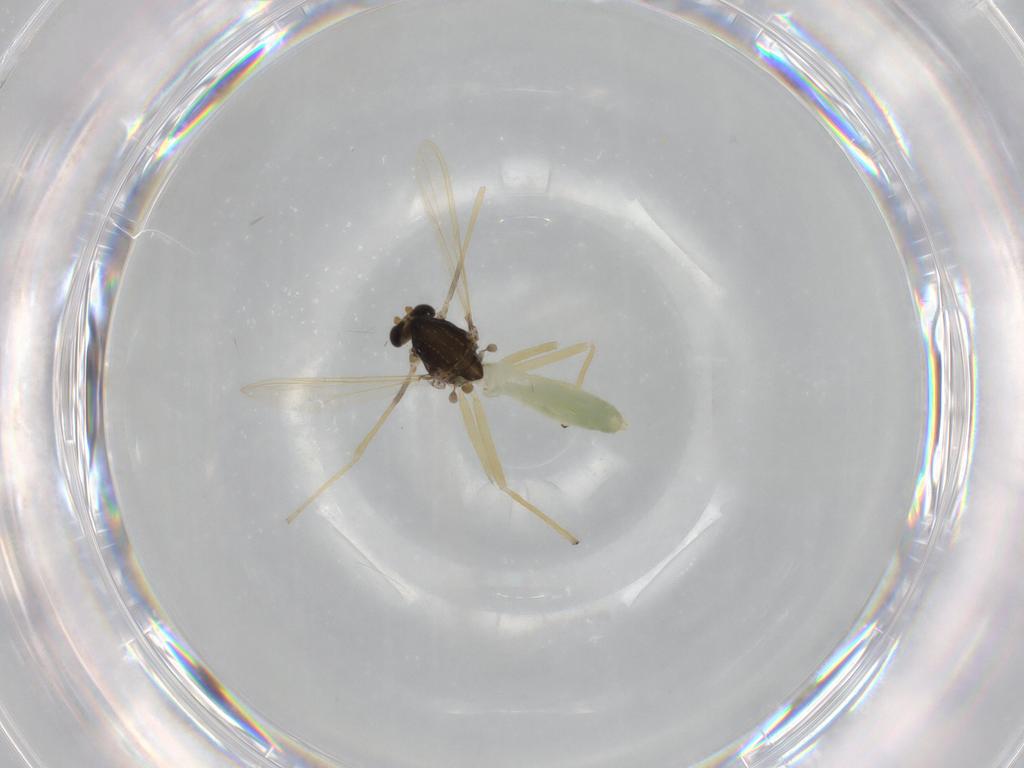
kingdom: Animalia
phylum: Arthropoda
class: Insecta
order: Diptera
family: Chironomidae
